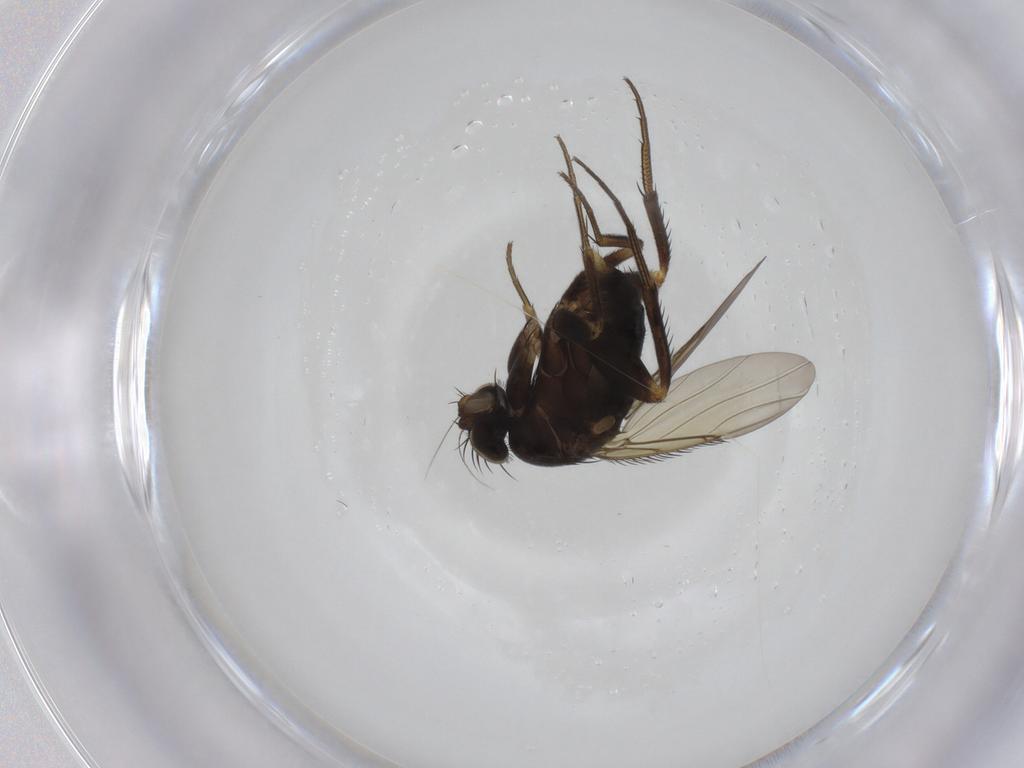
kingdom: Animalia
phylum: Arthropoda
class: Insecta
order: Diptera
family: Phoridae
